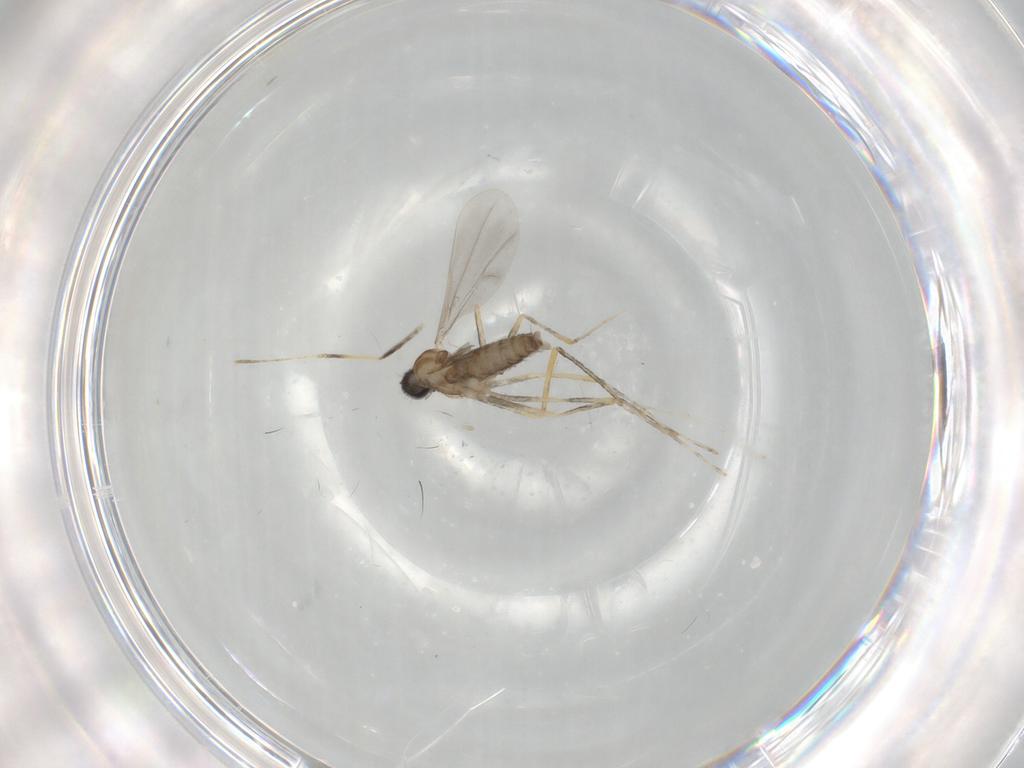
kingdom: Animalia
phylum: Arthropoda
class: Insecta
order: Diptera
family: Cecidomyiidae
